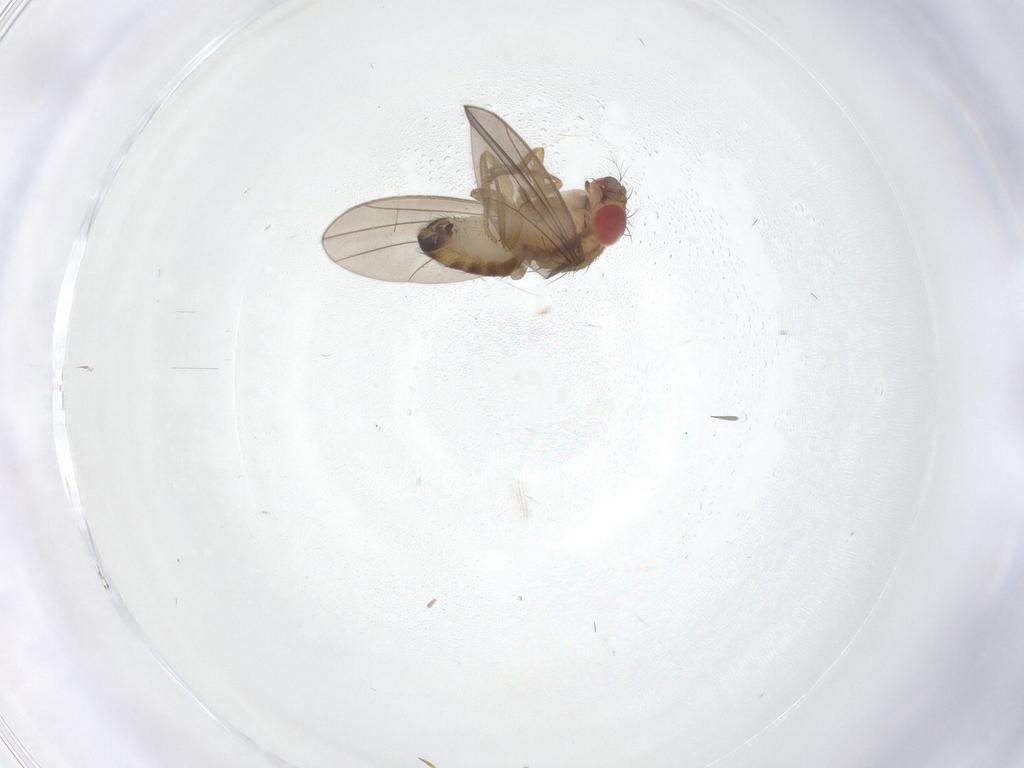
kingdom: Animalia
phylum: Arthropoda
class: Insecta
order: Diptera
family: Drosophilidae
